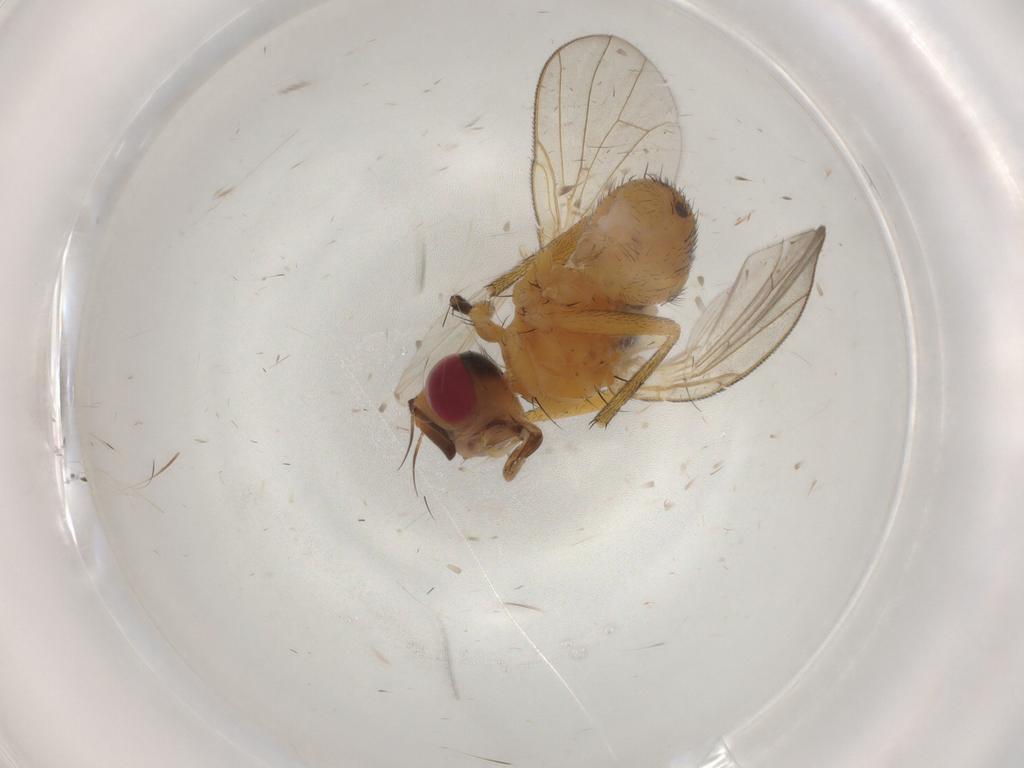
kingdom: Animalia
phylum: Arthropoda
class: Insecta
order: Diptera
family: Muscidae
